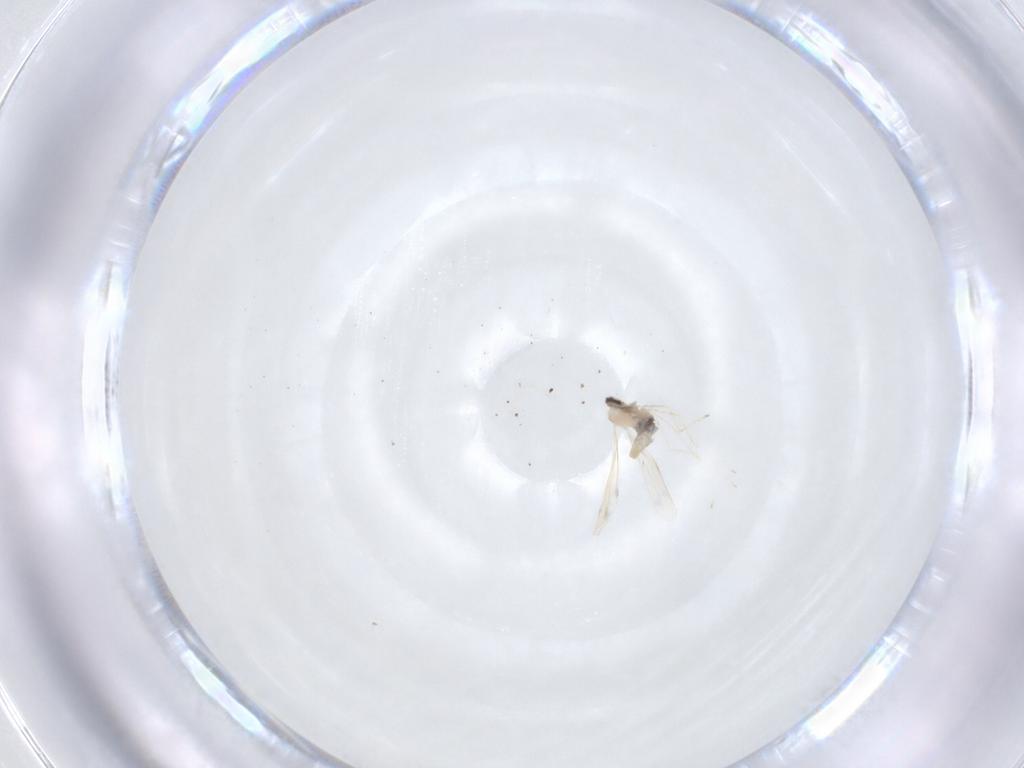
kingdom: Animalia
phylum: Arthropoda
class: Insecta
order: Diptera
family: Cecidomyiidae
